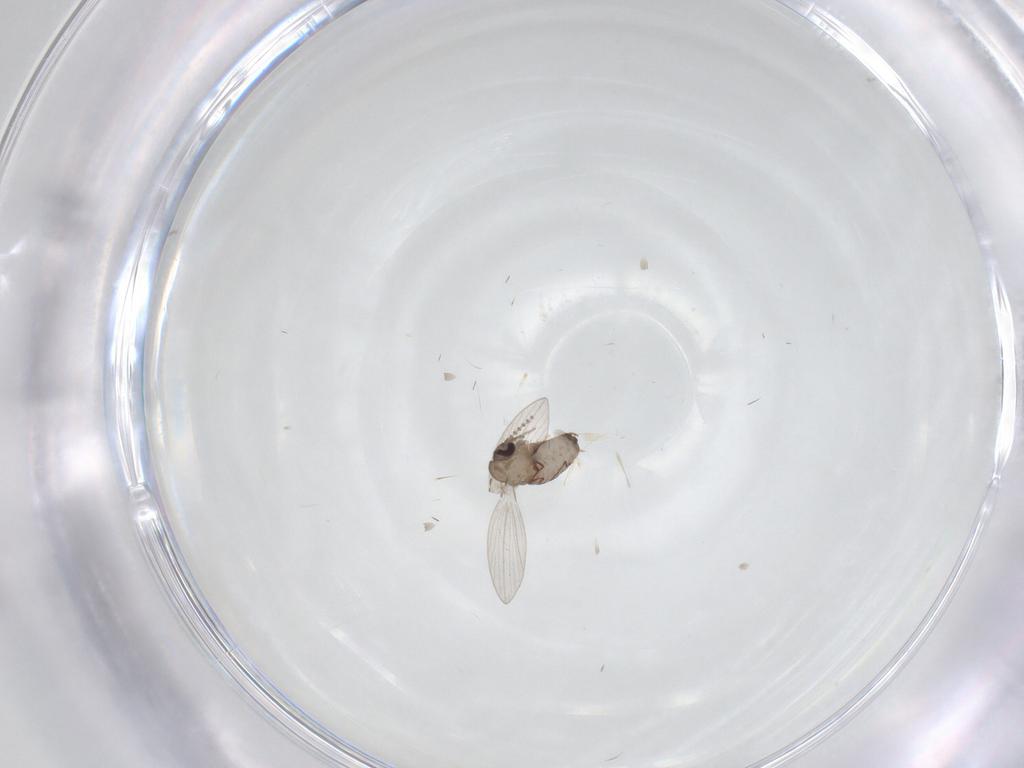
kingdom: Animalia
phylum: Arthropoda
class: Insecta
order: Diptera
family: Psychodidae
